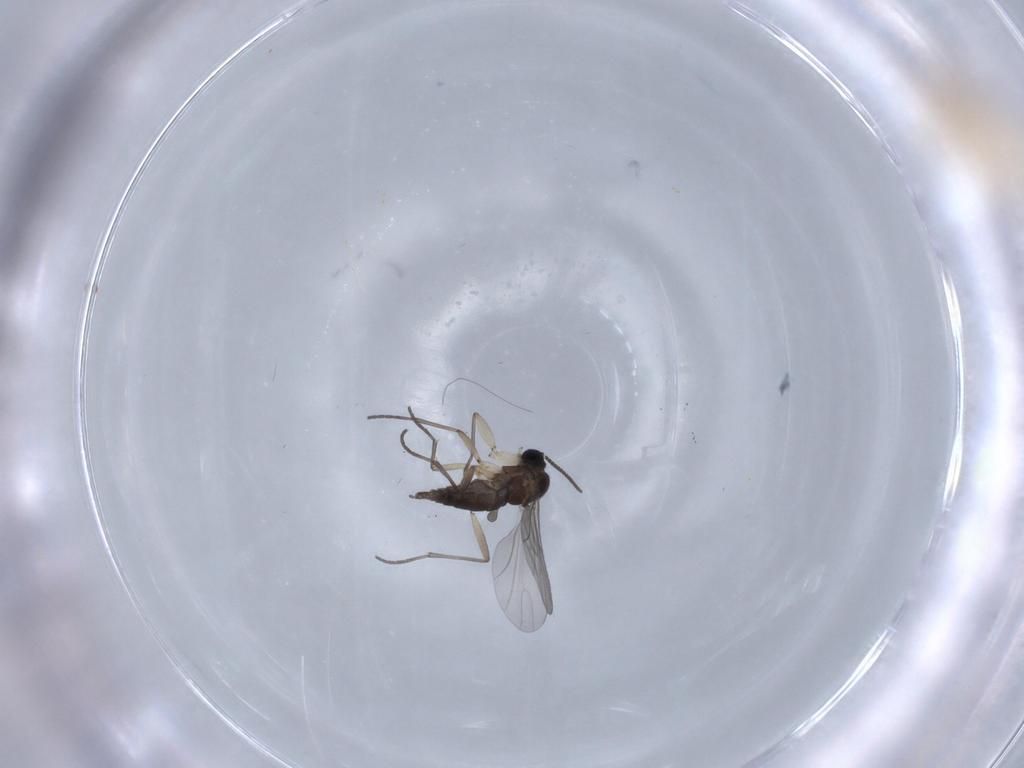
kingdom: Animalia
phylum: Arthropoda
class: Insecta
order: Diptera
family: Sciaridae
